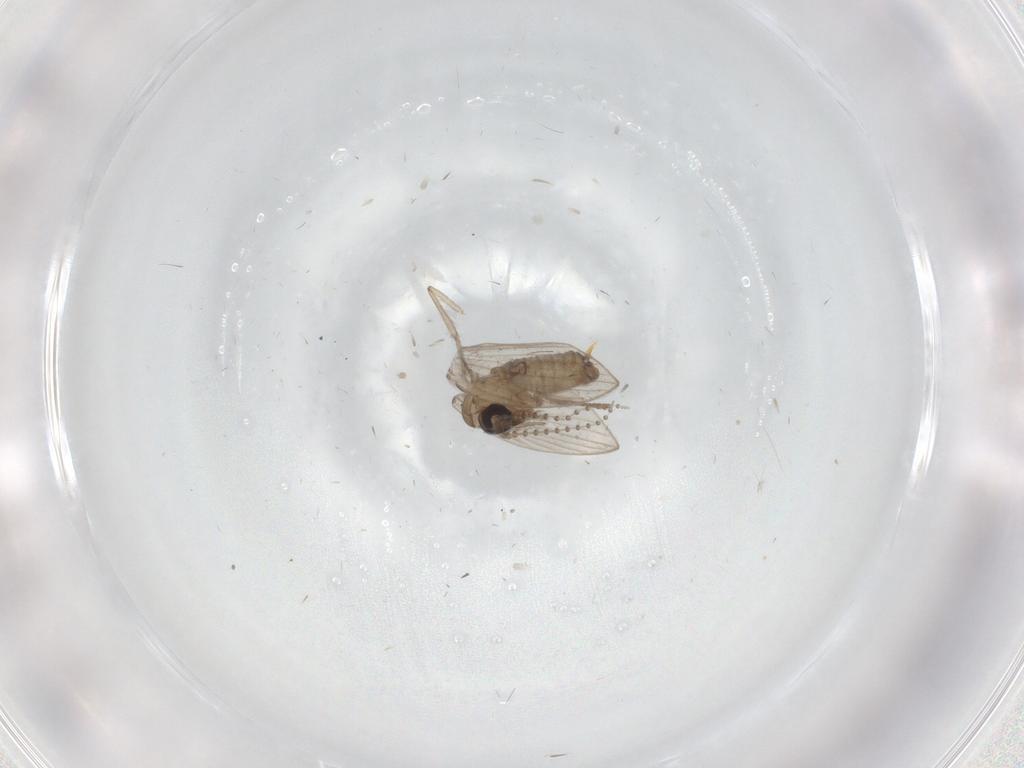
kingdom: Animalia
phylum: Arthropoda
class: Insecta
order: Diptera
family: Psychodidae
